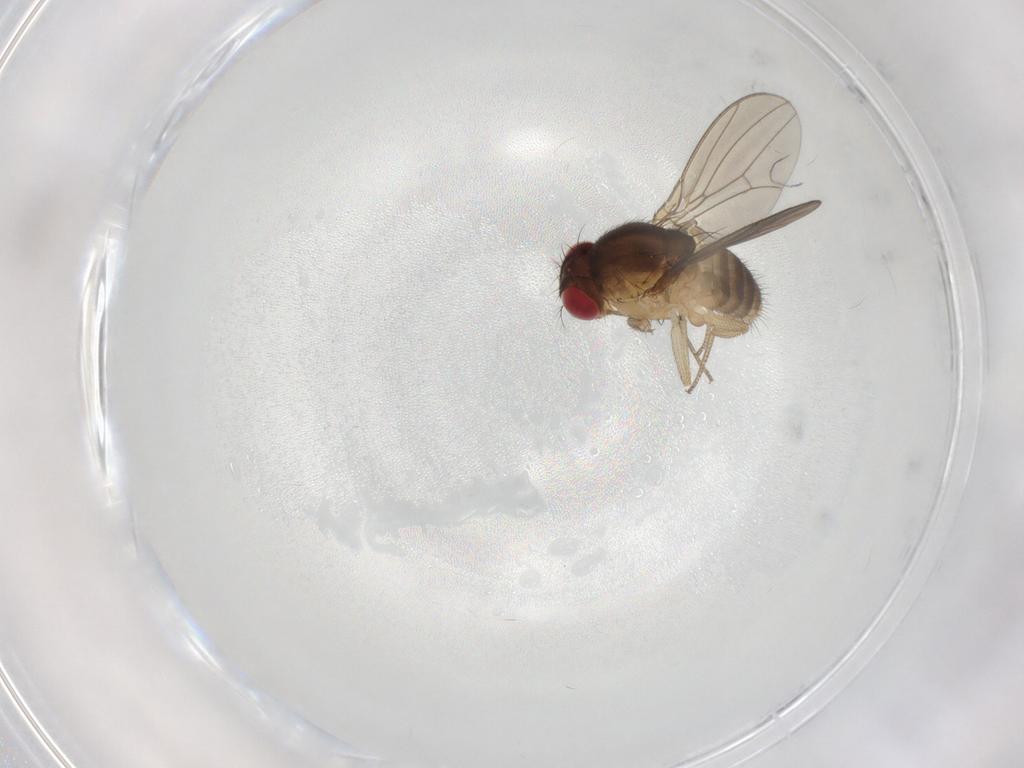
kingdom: Animalia
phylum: Arthropoda
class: Insecta
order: Diptera
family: Drosophilidae
